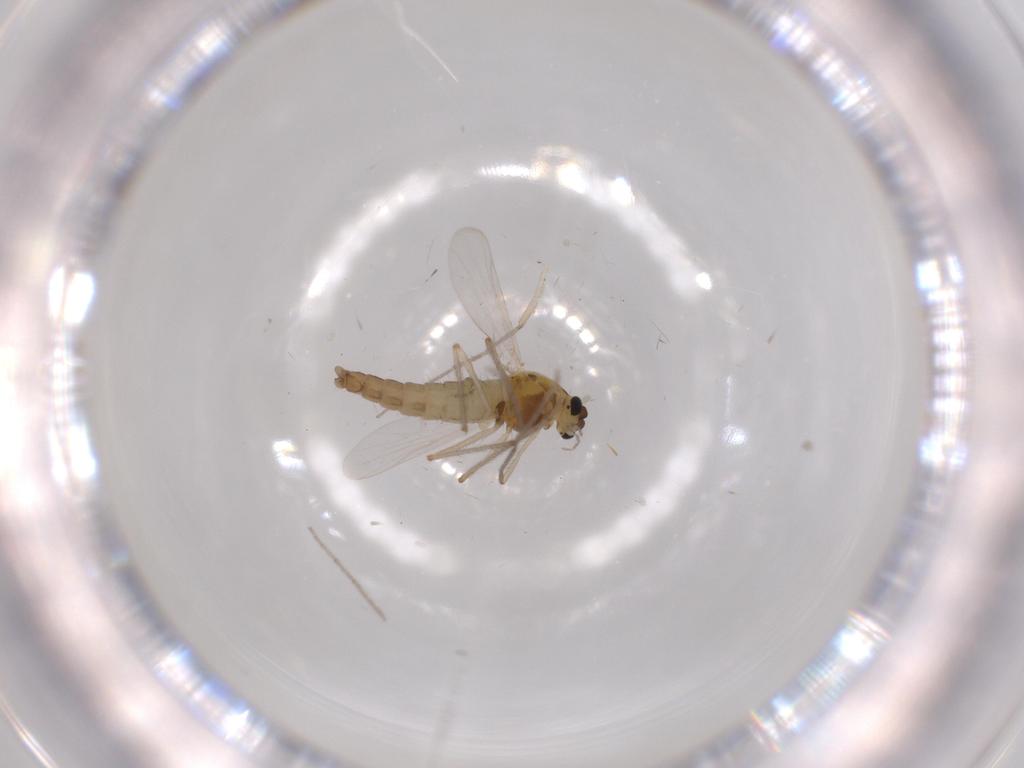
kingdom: Animalia
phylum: Arthropoda
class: Insecta
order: Diptera
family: Chironomidae
